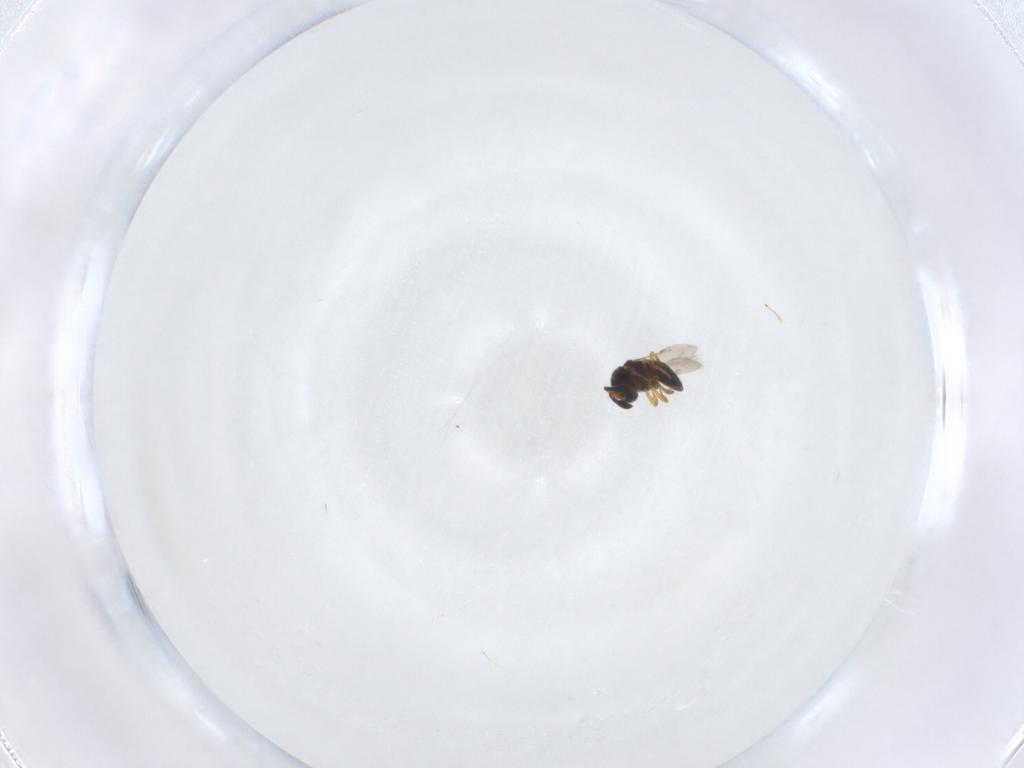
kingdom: Animalia
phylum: Arthropoda
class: Insecta
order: Hymenoptera
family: Scelionidae
